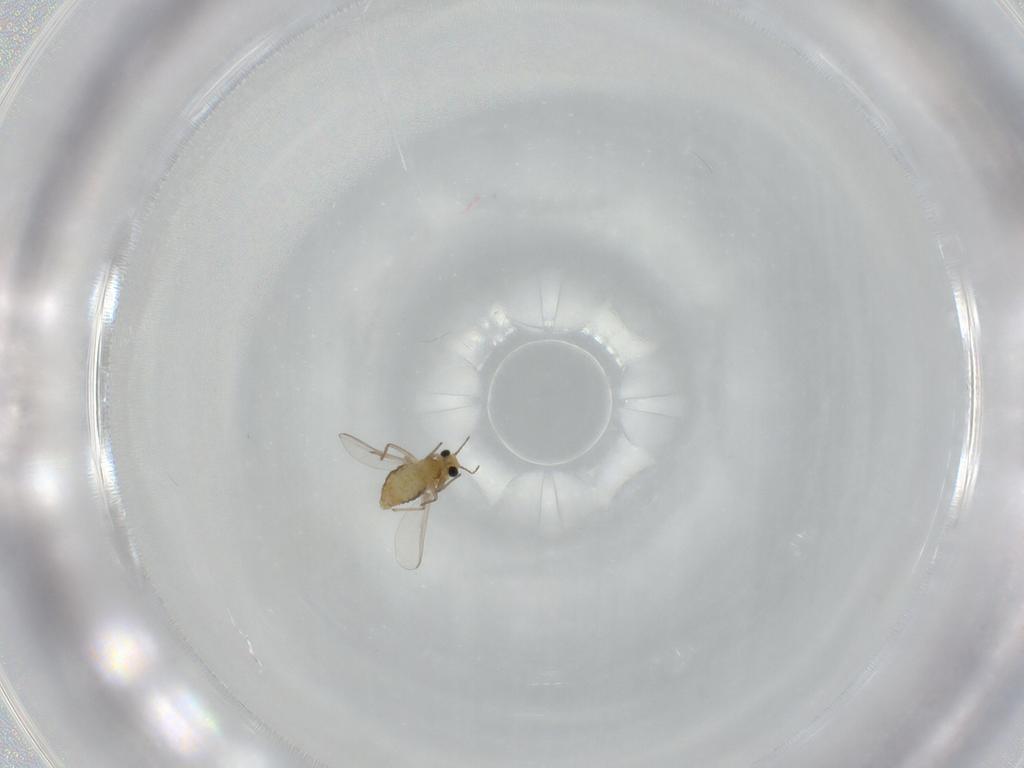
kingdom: Animalia
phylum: Arthropoda
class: Insecta
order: Diptera
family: Chironomidae
